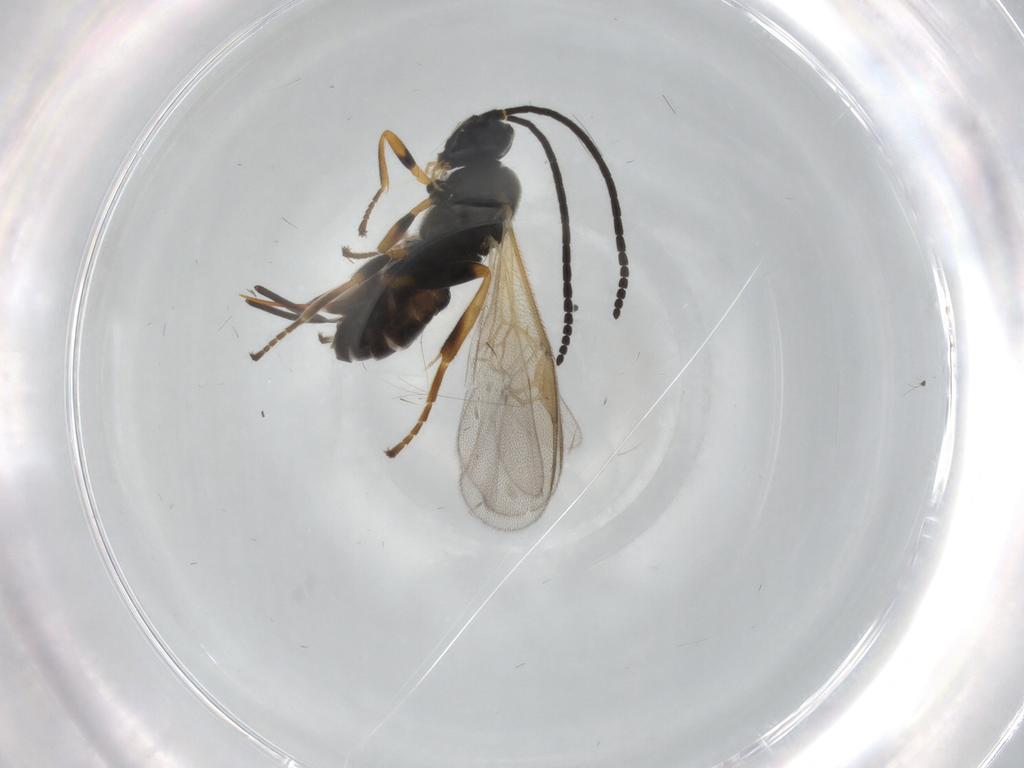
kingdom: Animalia
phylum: Arthropoda
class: Insecta
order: Hymenoptera
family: Braconidae
